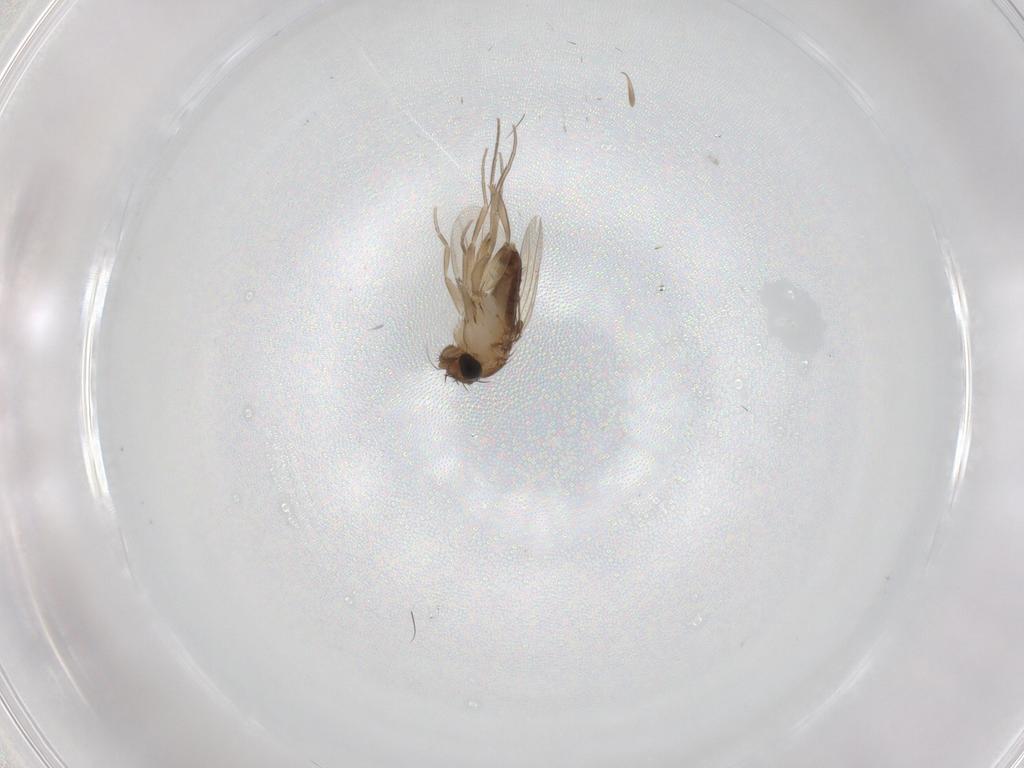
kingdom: Animalia
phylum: Arthropoda
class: Insecta
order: Diptera
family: Phoridae
